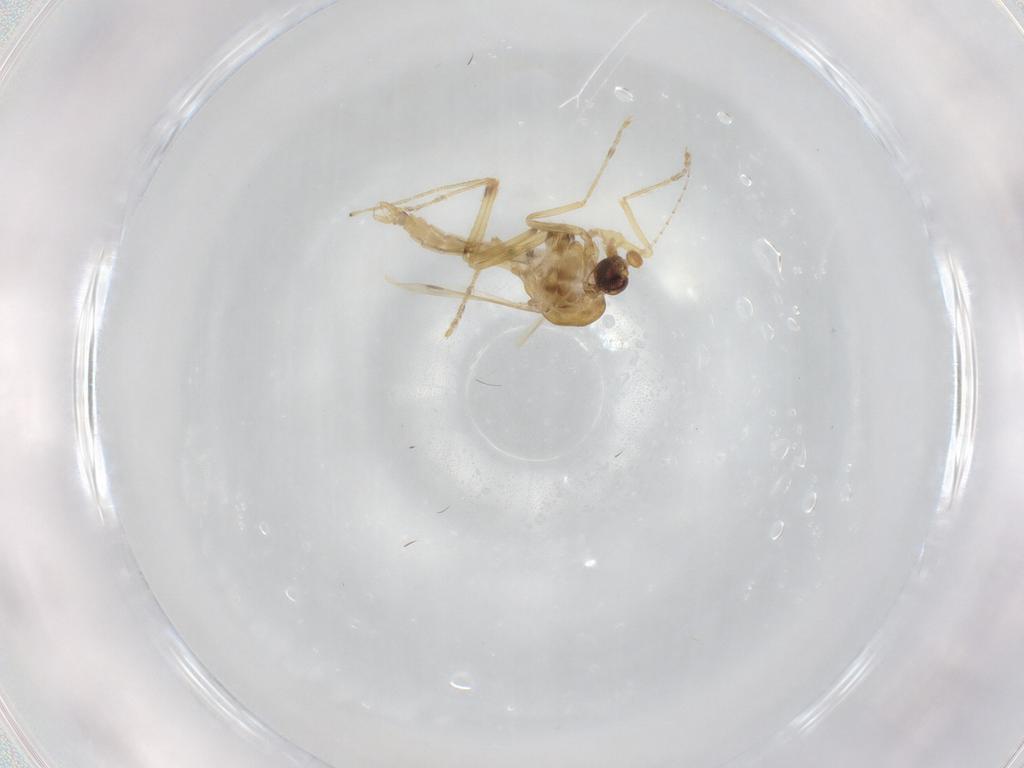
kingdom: Animalia
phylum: Arthropoda
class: Insecta
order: Diptera
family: Corethrellidae
